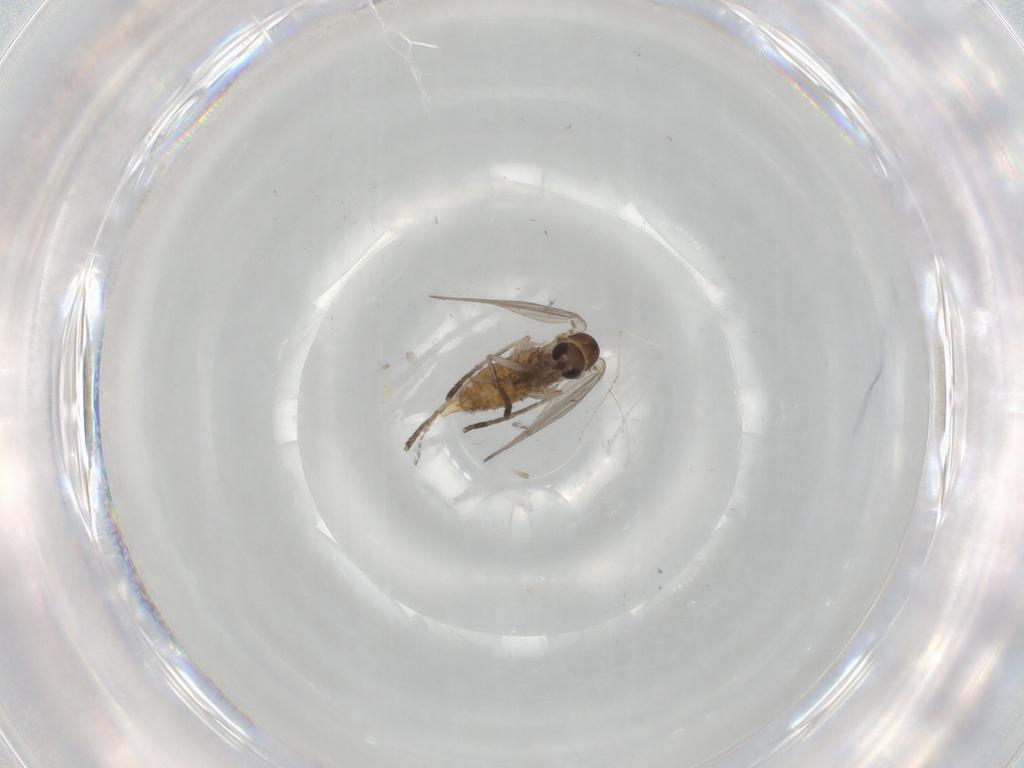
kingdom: Animalia
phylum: Arthropoda
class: Insecta
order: Diptera
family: Cecidomyiidae
